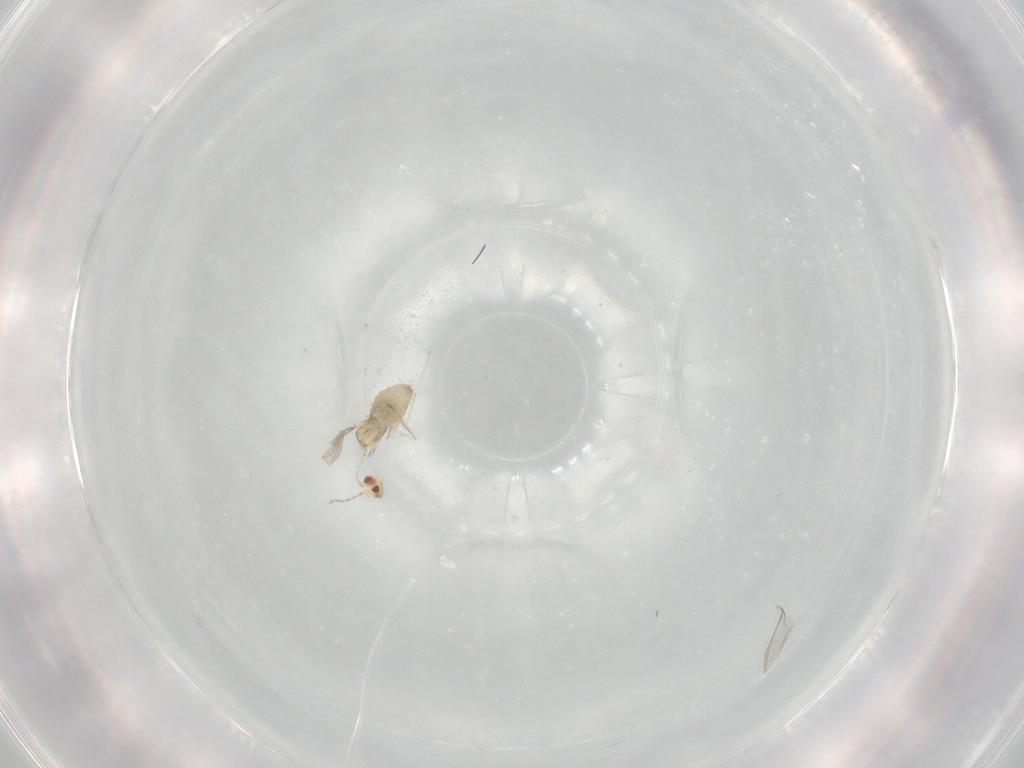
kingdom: Animalia
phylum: Arthropoda
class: Insecta
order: Diptera
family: Cecidomyiidae
